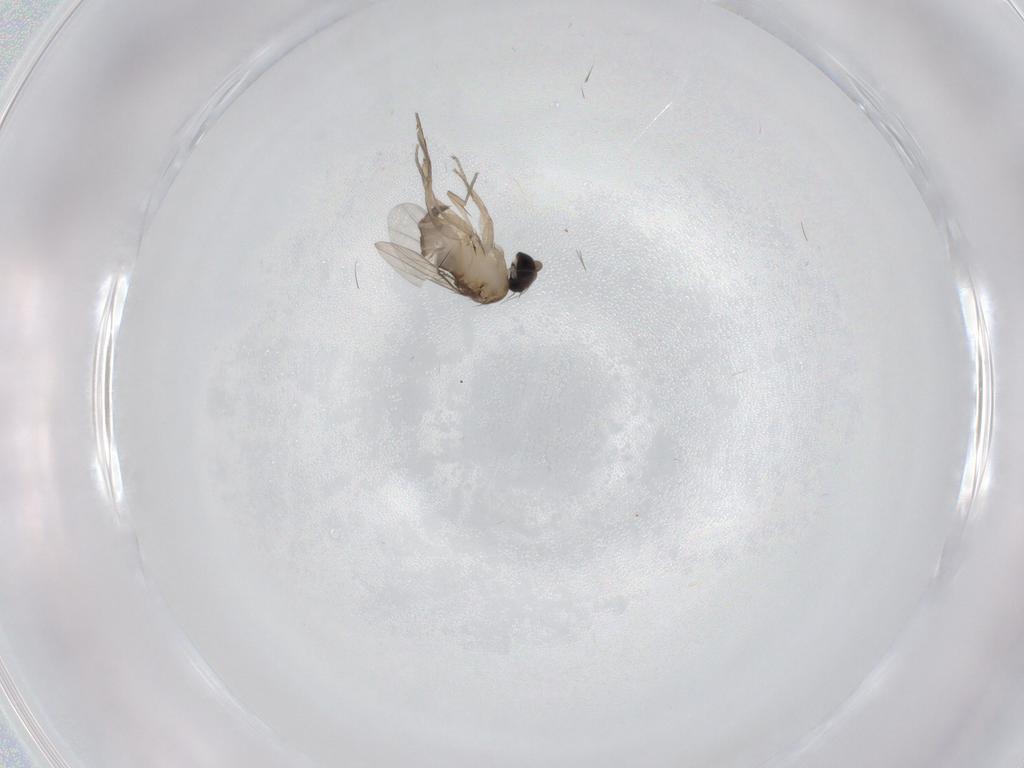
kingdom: Animalia
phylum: Arthropoda
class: Insecta
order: Diptera
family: Phoridae
